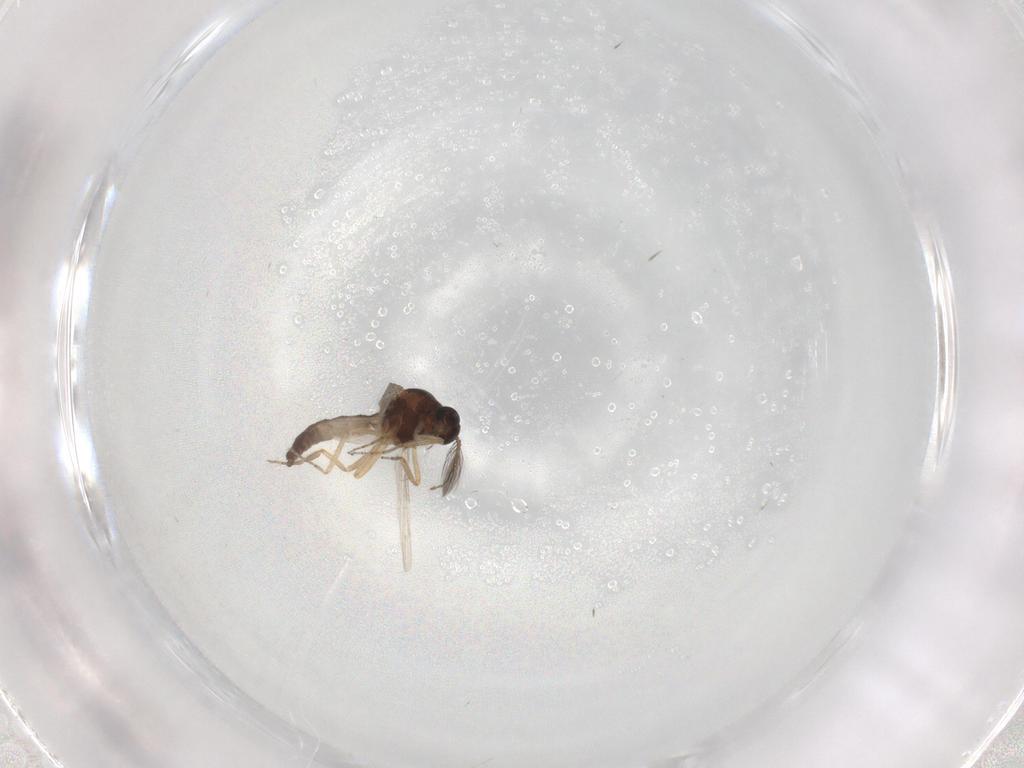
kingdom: Animalia
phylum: Arthropoda
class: Insecta
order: Diptera
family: Ceratopogonidae
